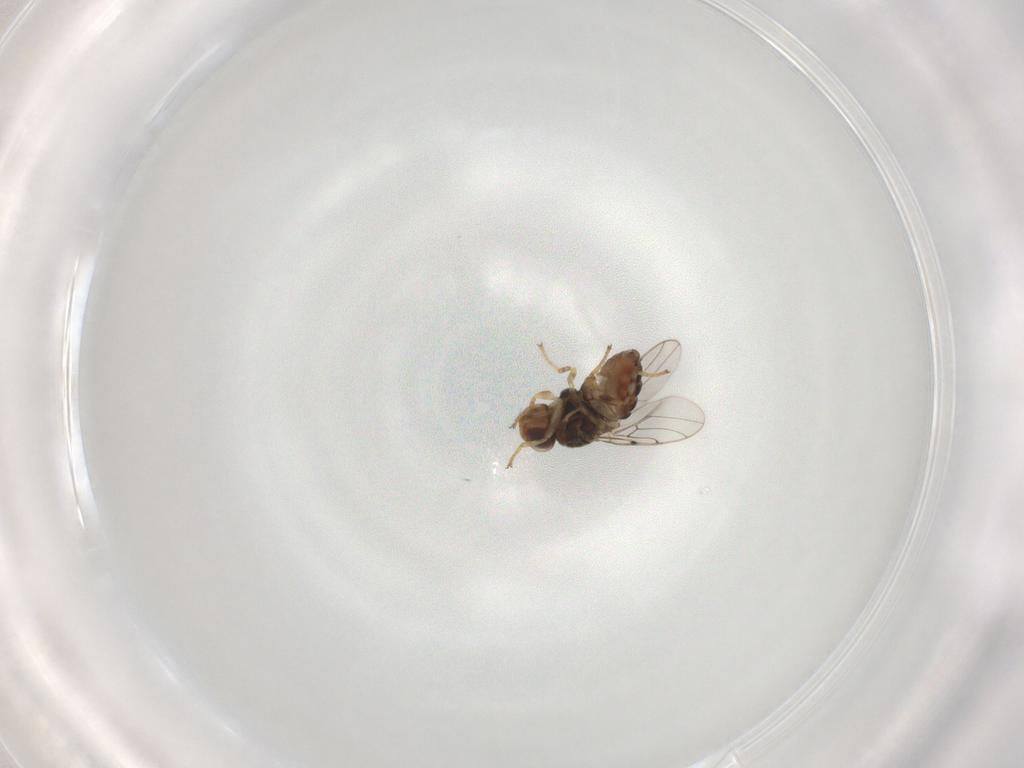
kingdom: Animalia
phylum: Arthropoda
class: Insecta
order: Diptera
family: Chloropidae
